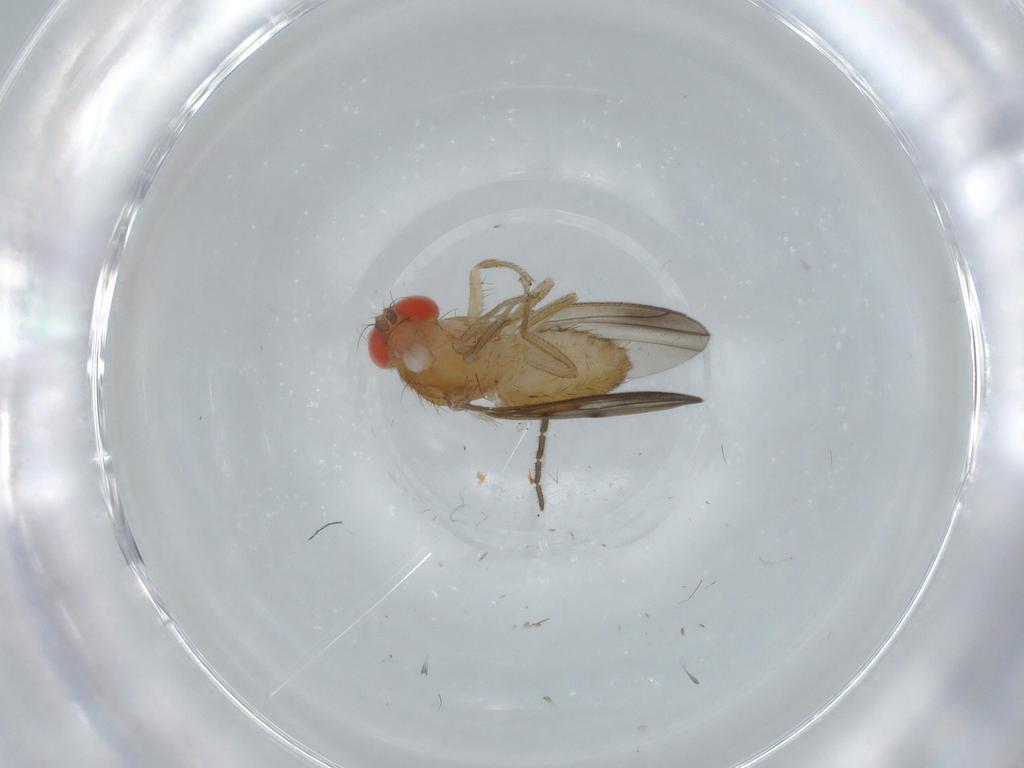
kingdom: Animalia
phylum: Arthropoda
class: Insecta
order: Diptera
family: Drosophilidae
